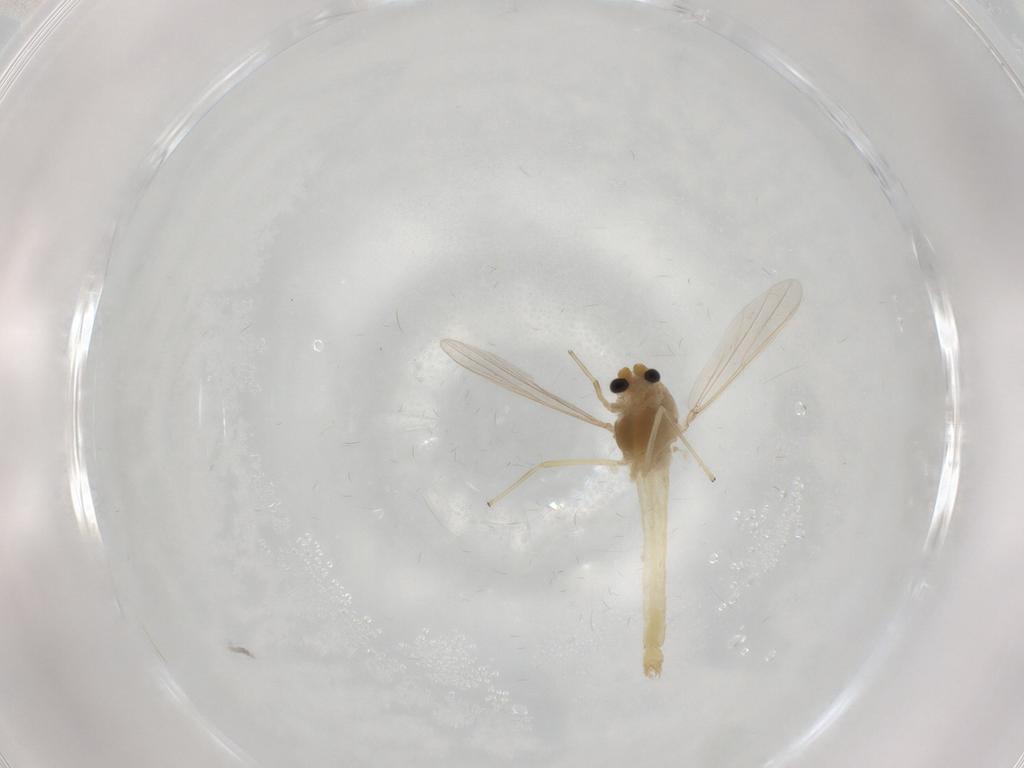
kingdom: Animalia
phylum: Arthropoda
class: Insecta
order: Diptera
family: Chironomidae
